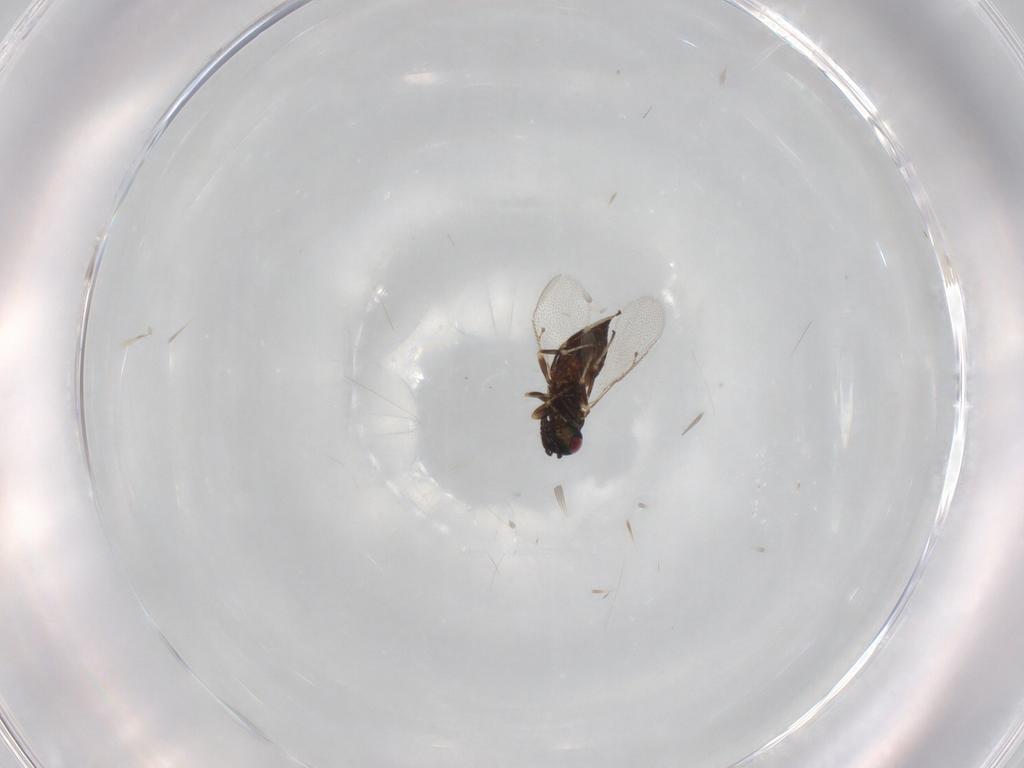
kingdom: Animalia
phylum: Arthropoda
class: Insecta
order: Hymenoptera
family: Pteromalidae
